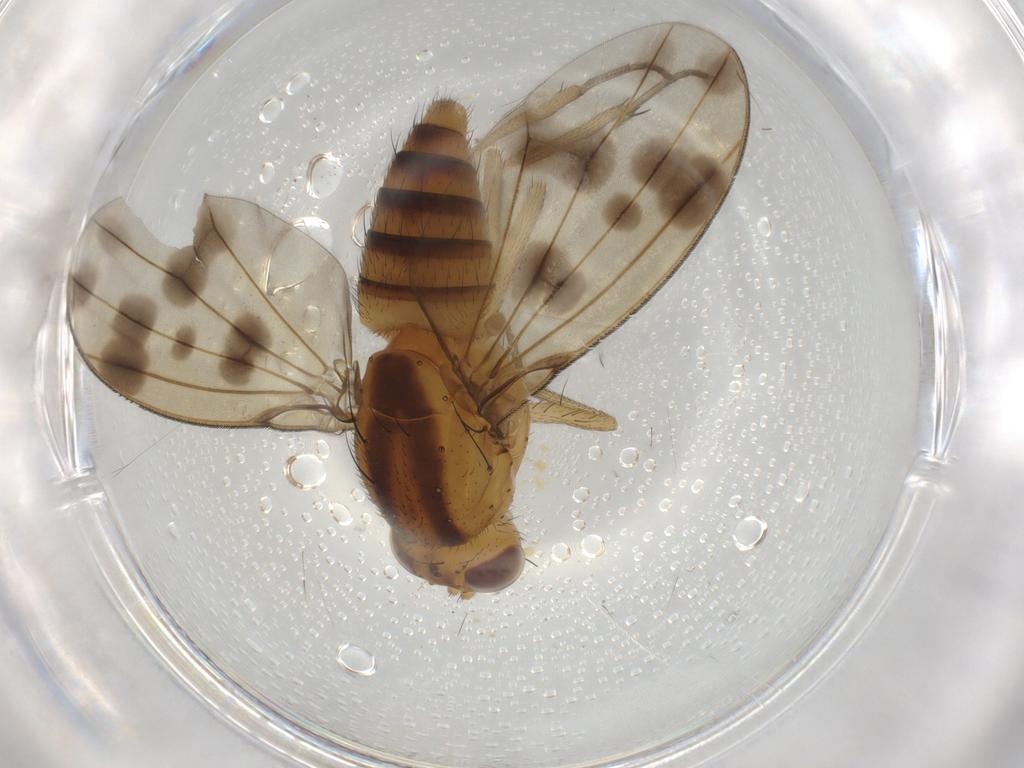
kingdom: Animalia
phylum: Arthropoda
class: Insecta
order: Diptera
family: Chironomidae
